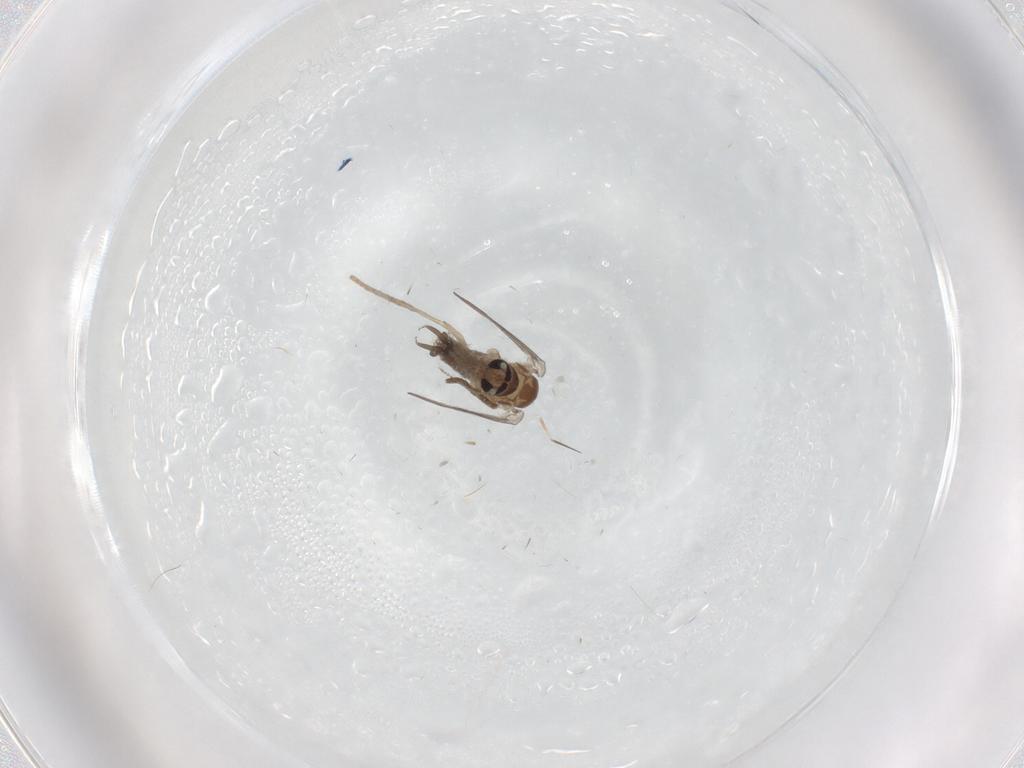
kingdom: Animalia
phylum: Arthropoda
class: Insecta
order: Diptera
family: Psychodidae
